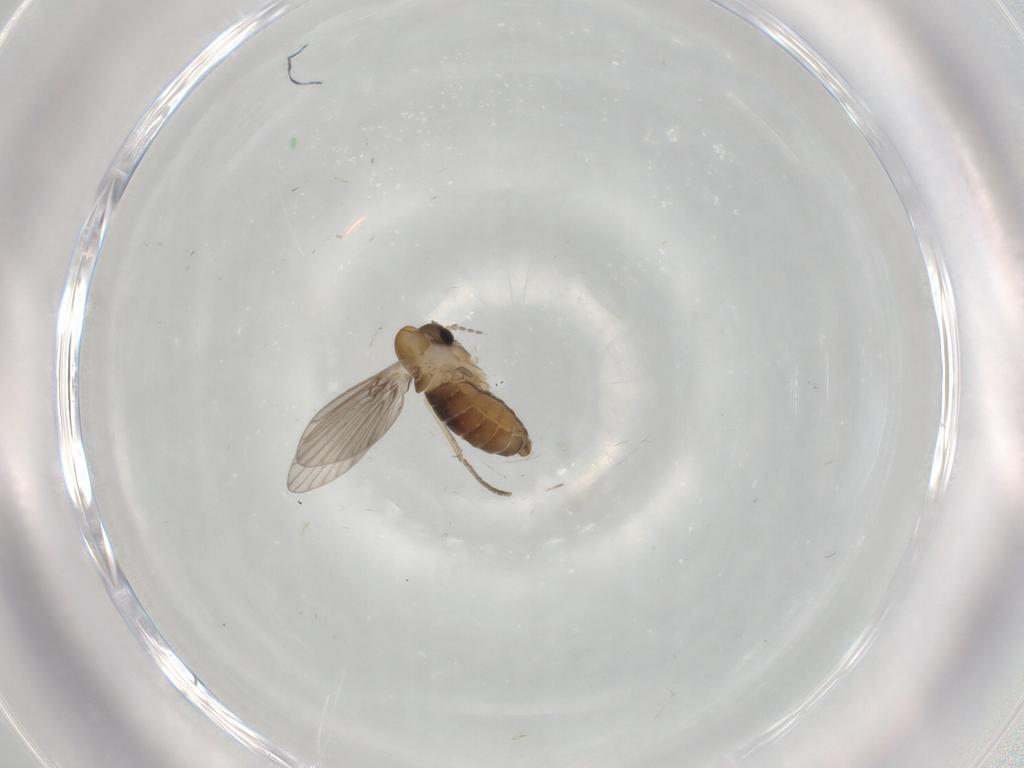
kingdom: Animalia
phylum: Arthropoda
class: Insecta
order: Diptera
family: Psychodidae
